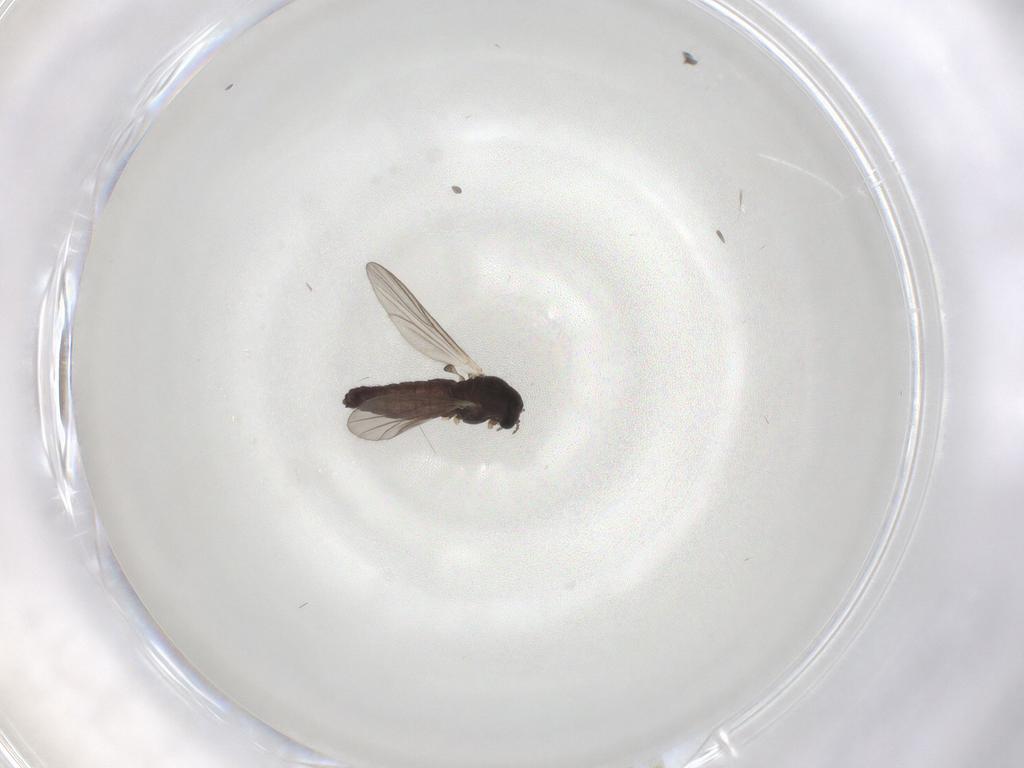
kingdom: Animalia
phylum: Arthropoda
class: Insecta
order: Diptera
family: Chironomidae
